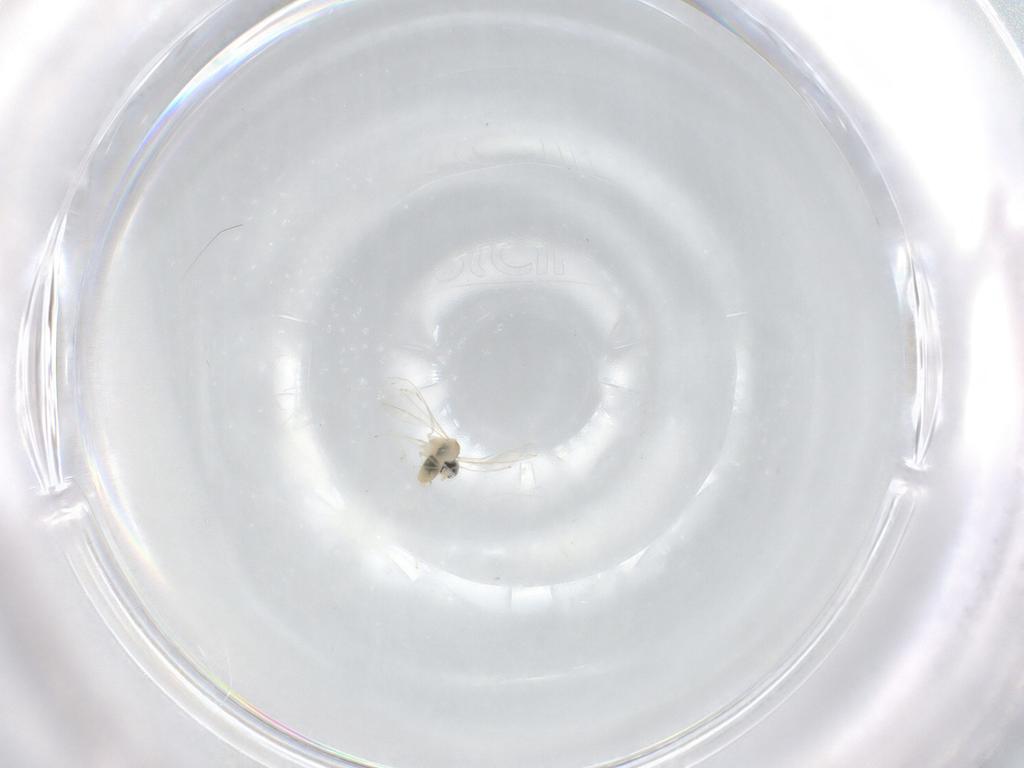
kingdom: Animalia
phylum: Arthropoda
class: Insecta
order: Diptera
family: Cecidomyiidae
